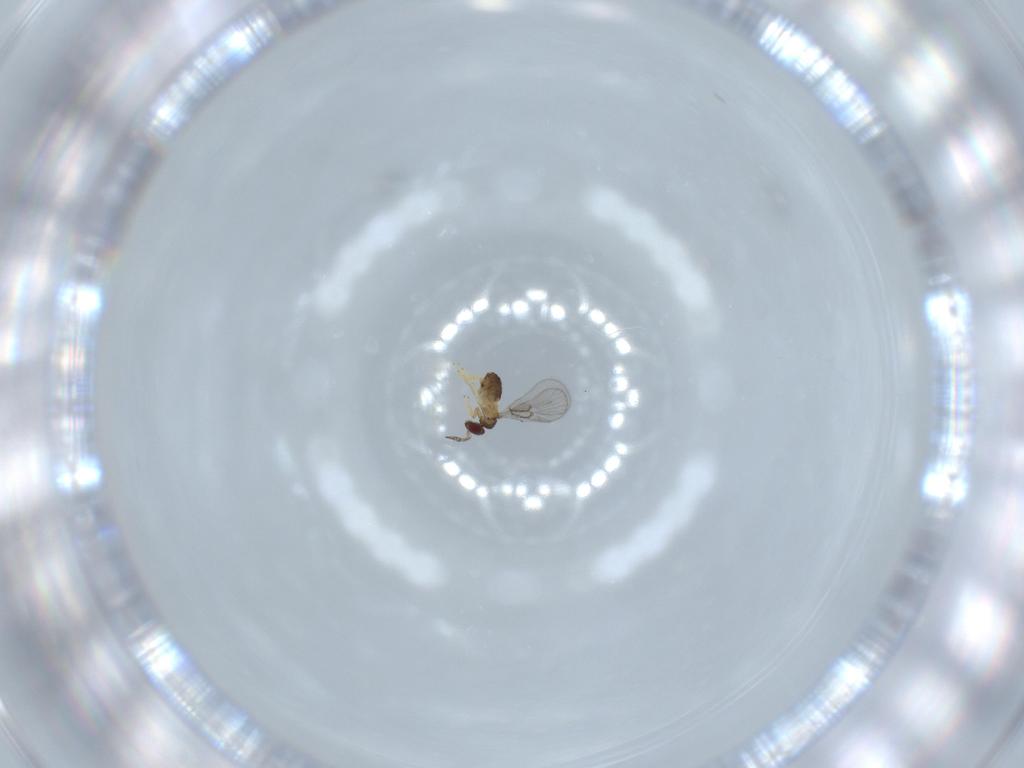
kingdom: Animalia
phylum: Arthropoda
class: Insecta
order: Hymenoptera
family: Trichogrammatidae
